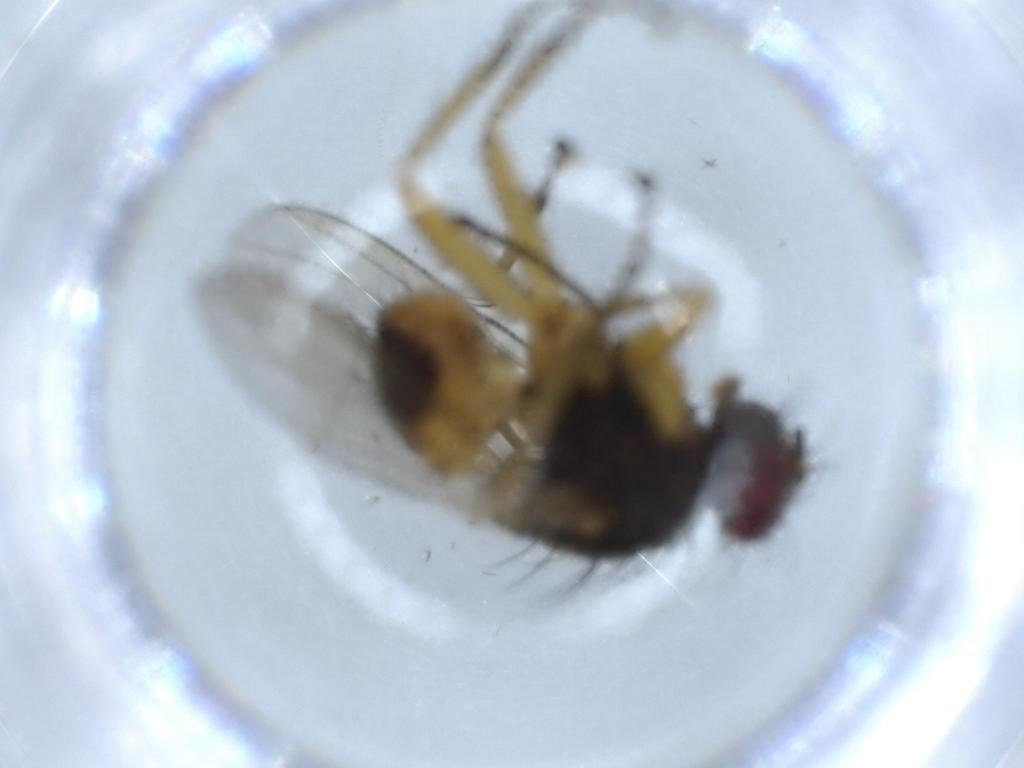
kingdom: Animalia
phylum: Arthropoda
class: Insecta
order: Diptera
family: Muscidae
